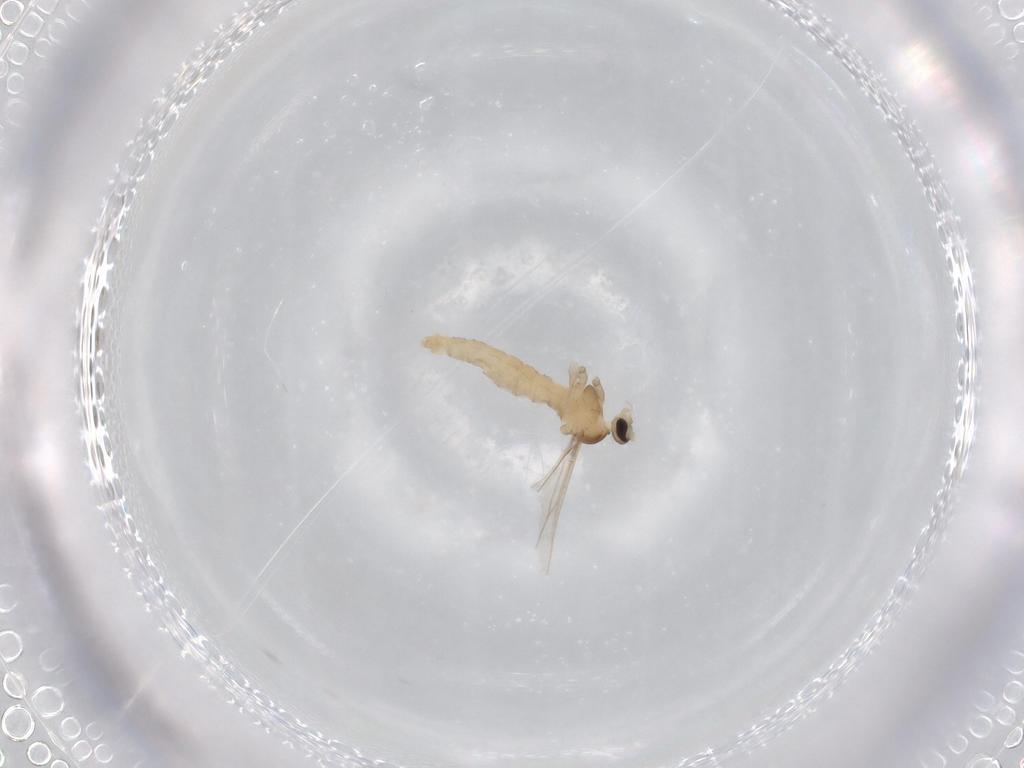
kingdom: Animalia
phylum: Arthropoda
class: Insecta
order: Diptera
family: Cecidomyiidae
